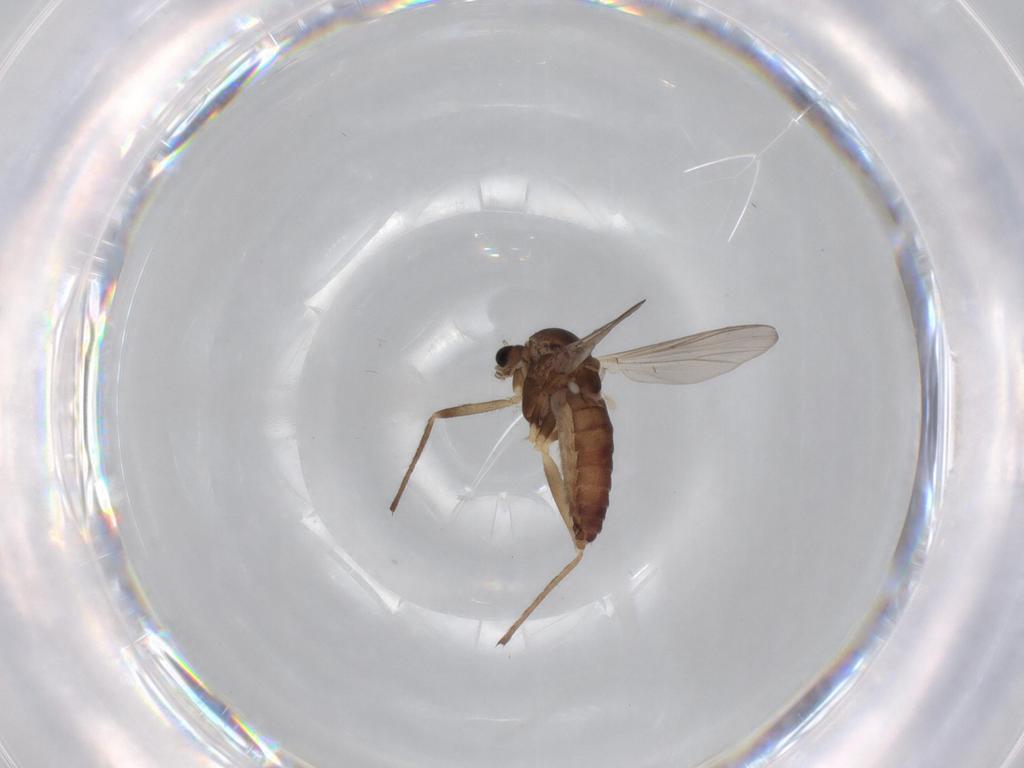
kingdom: Animalia
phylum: Arthropoda
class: Insecta
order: Diptera
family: Chironomidae
